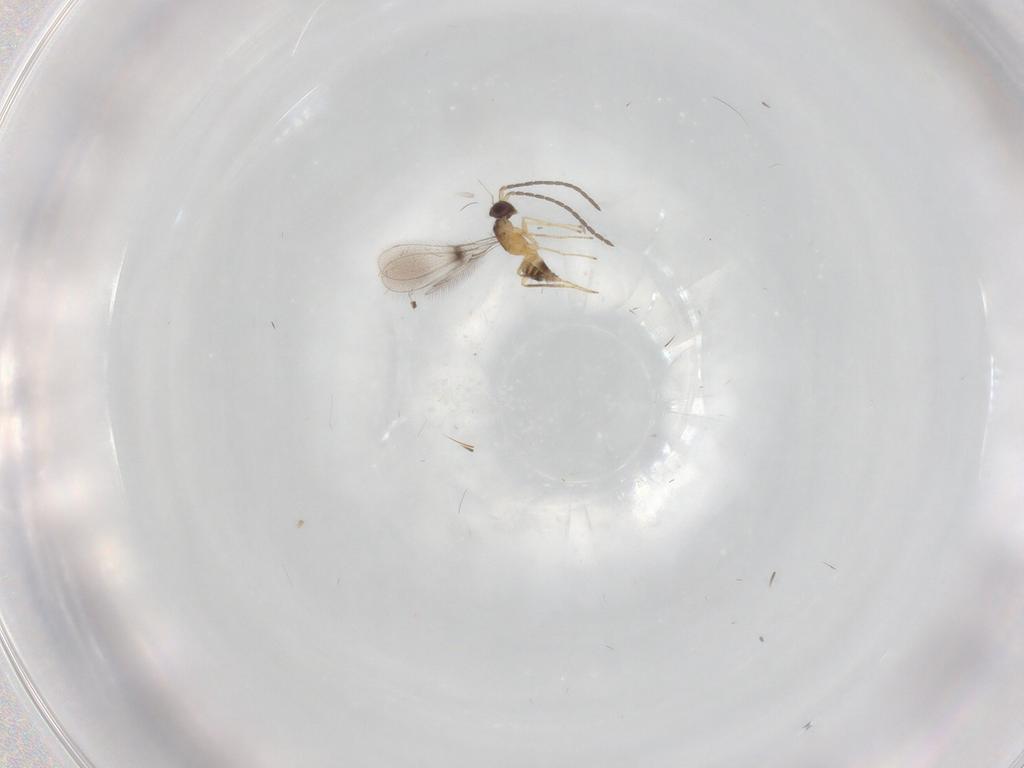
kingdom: Animalia
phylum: Arthropoda
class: Insecta
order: Hymenoptera
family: Mymaridae
